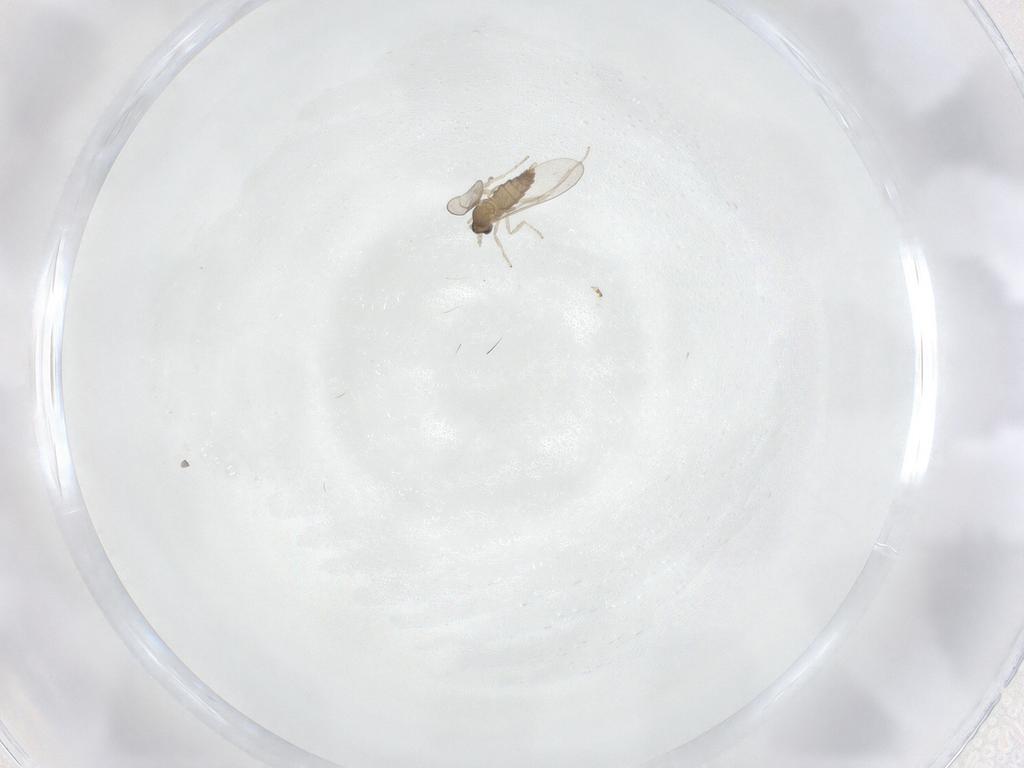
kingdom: Animalia
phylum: Arthropoda
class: Insecta
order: Diptera
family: Cecidomyiidae
